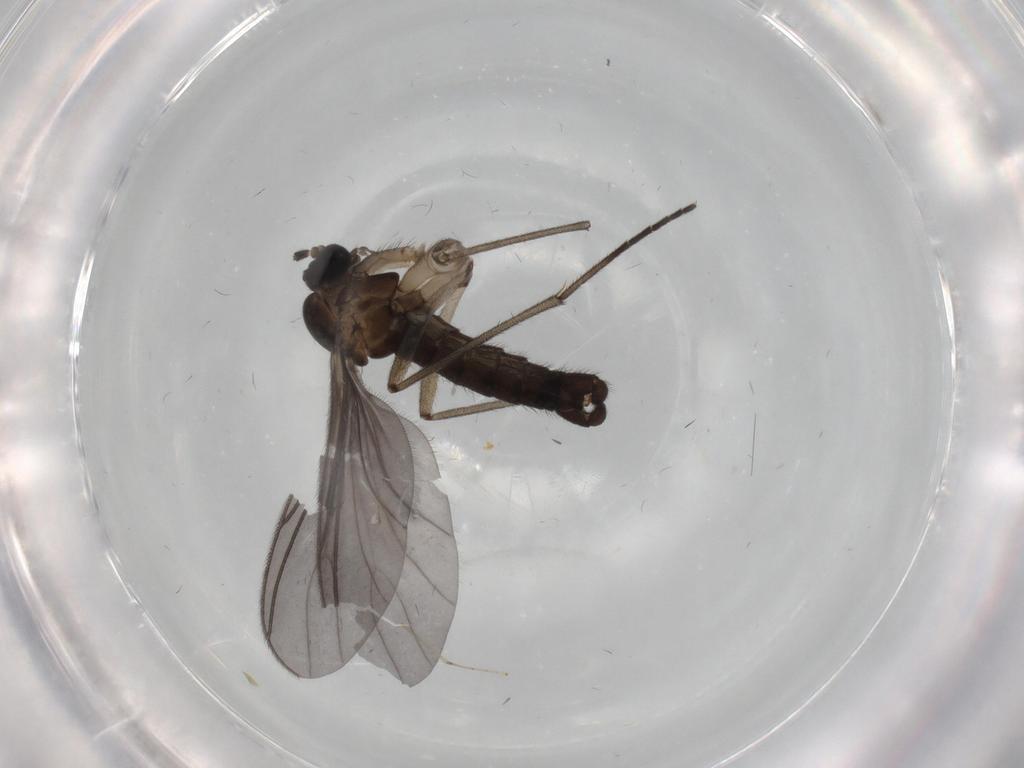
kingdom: Animalia
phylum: Arthropoda
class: Insecta
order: Diptera
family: Sciaridae
